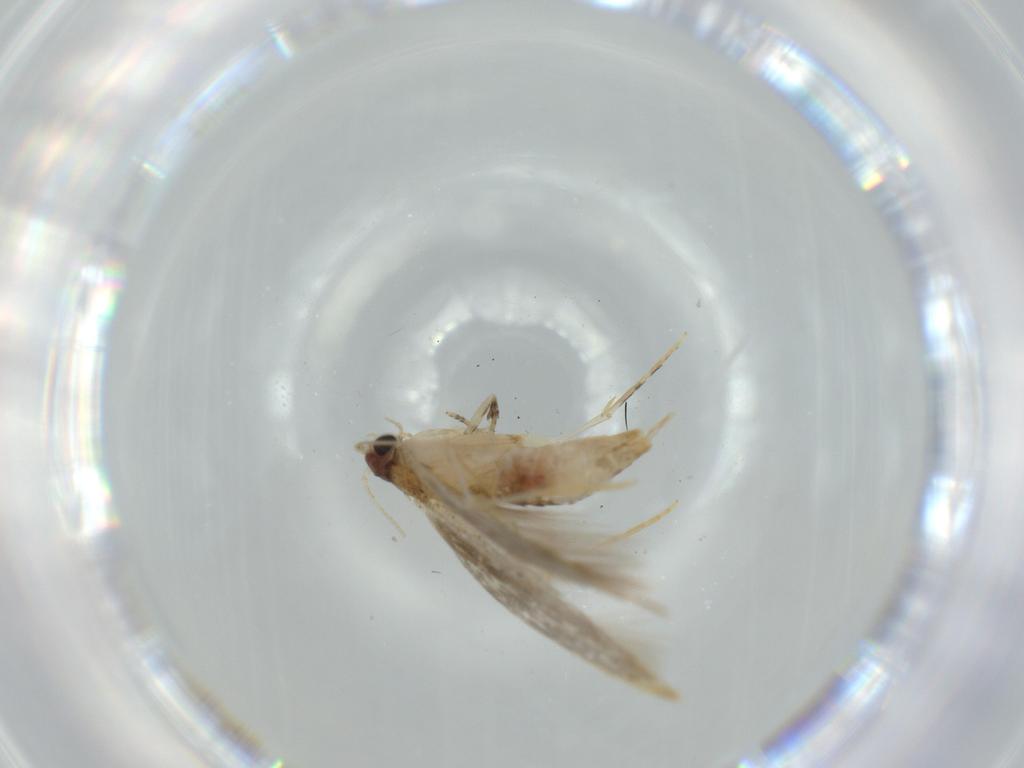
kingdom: Animalia
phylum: Arthropoda
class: Insecta
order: Lepidoptera
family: Tineidae
